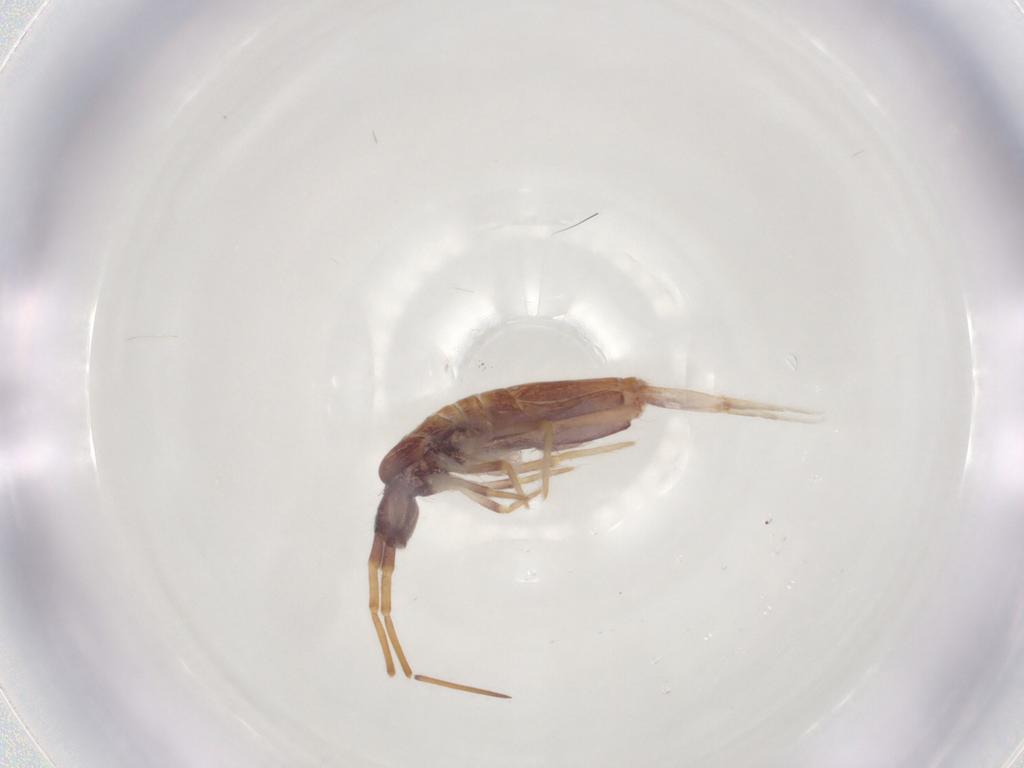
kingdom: Animalia
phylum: Arthropoda
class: Collembola
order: Entomobryomorpha
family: Entomobryidae
